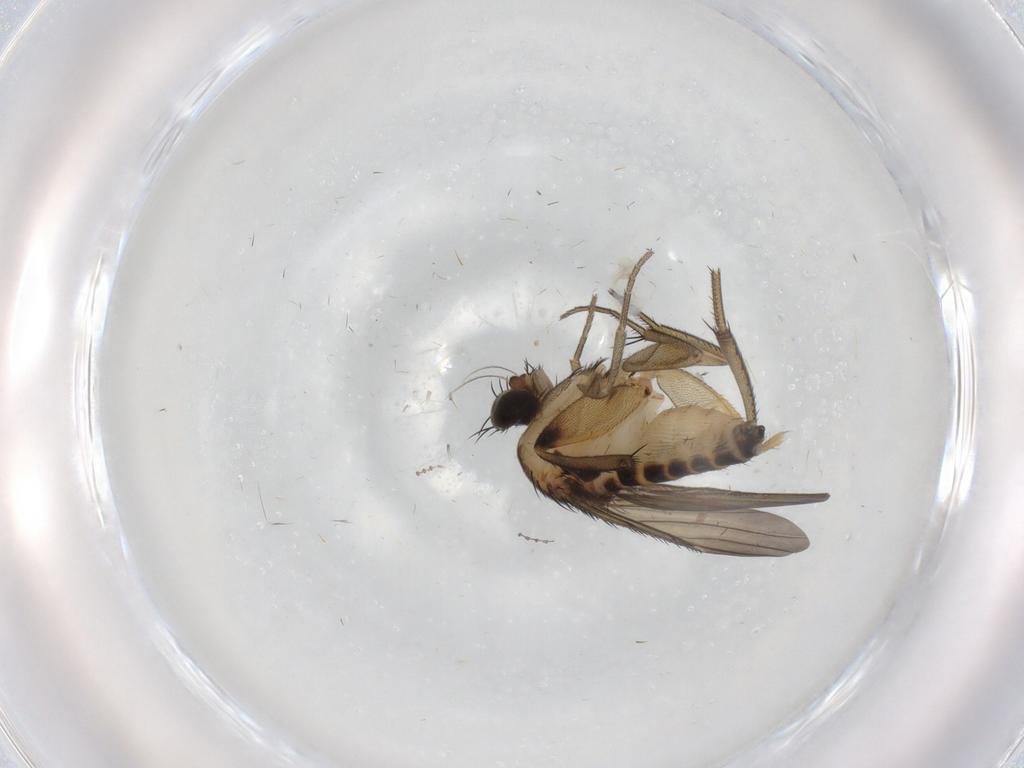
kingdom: Animalia
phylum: Arthropoda
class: Insecta
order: Diptera
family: Phoridae
